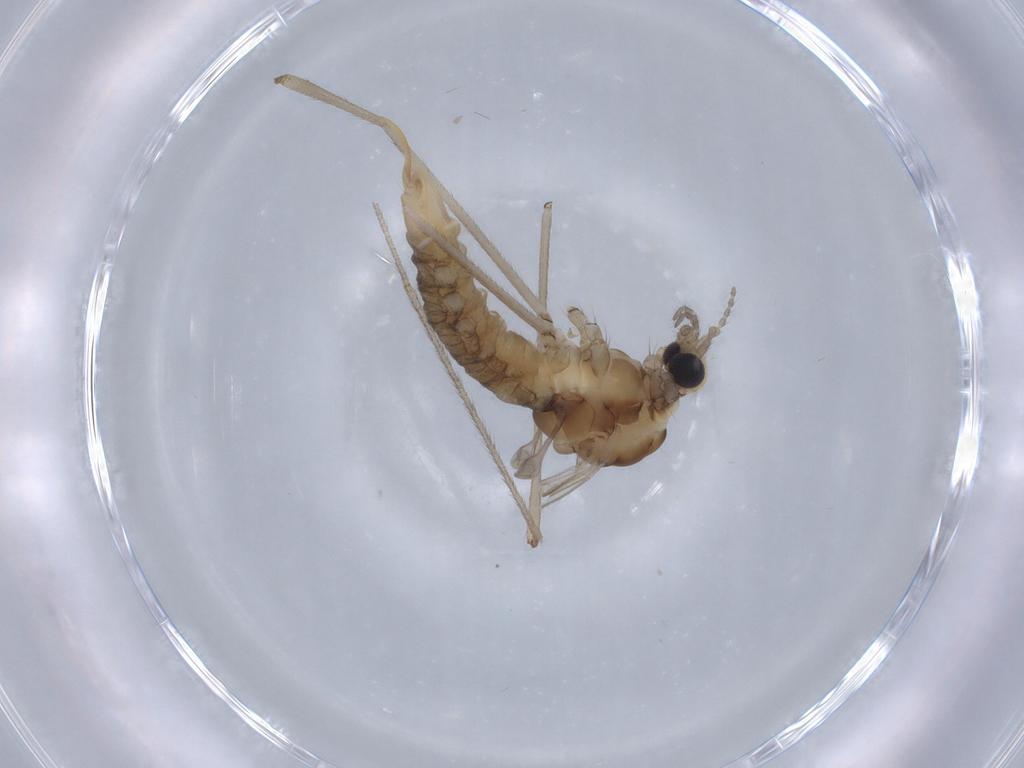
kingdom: Animalia
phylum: Arthropoda
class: Insecta
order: Diptera
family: Limoniidae
